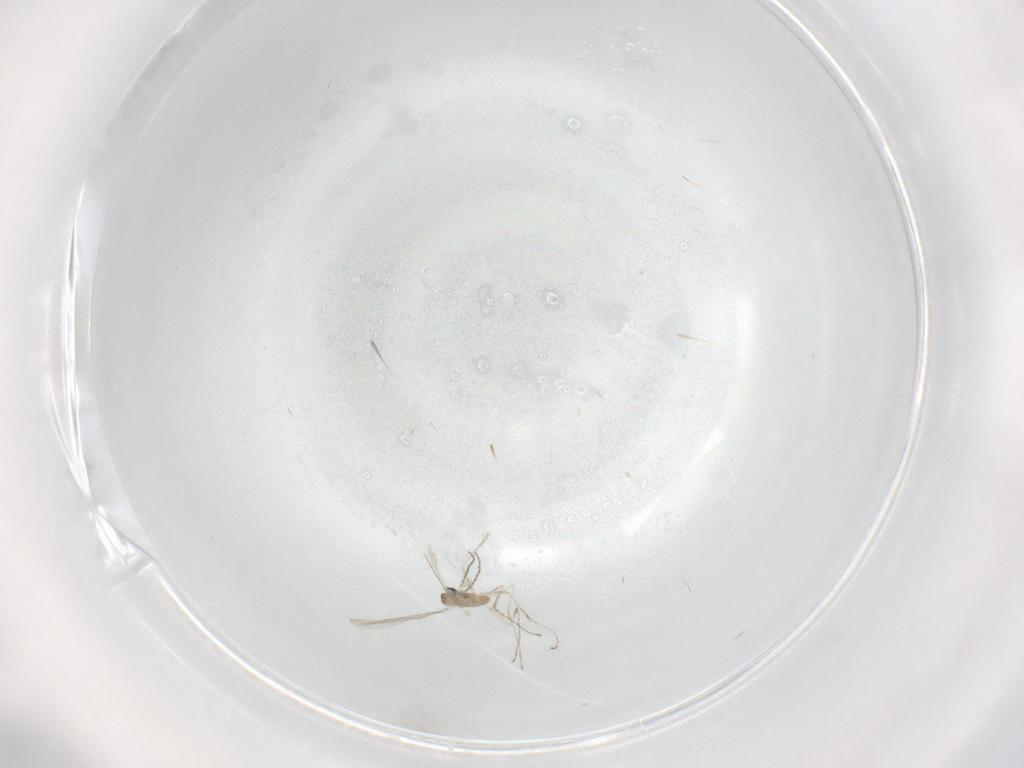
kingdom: Animalia
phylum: Arthropoda
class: Insecta
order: Diptera
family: Cecidomyiidae
